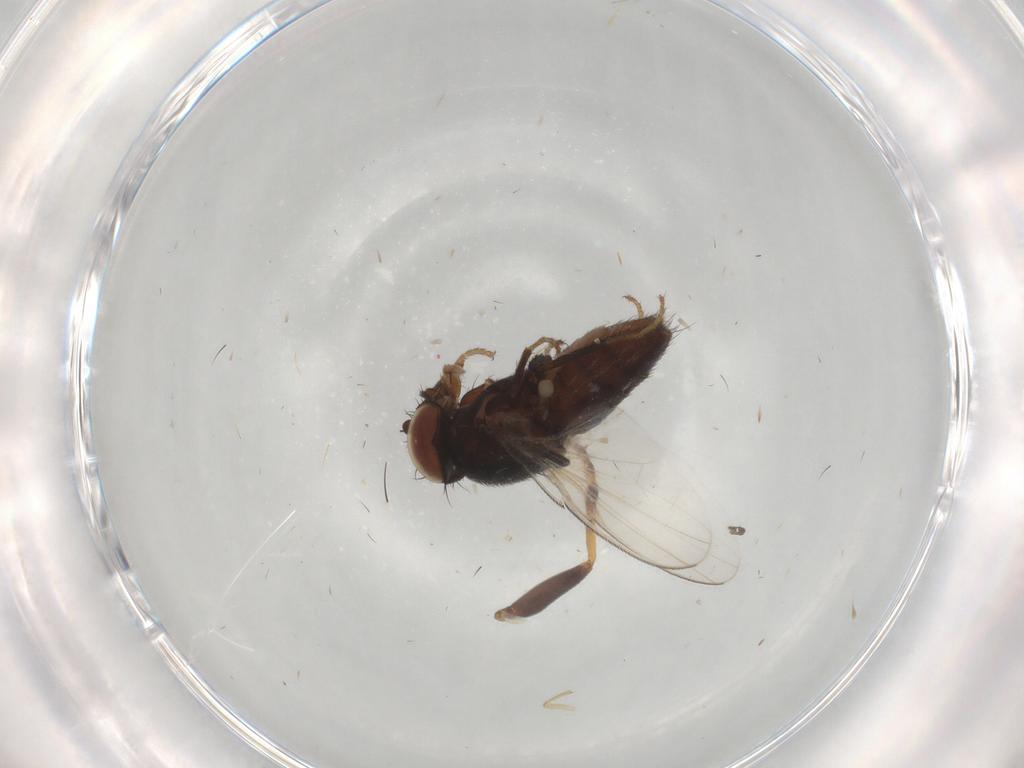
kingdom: Animalia
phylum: Arthropoda
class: Insecta
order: Diptera
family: Milichiidae
